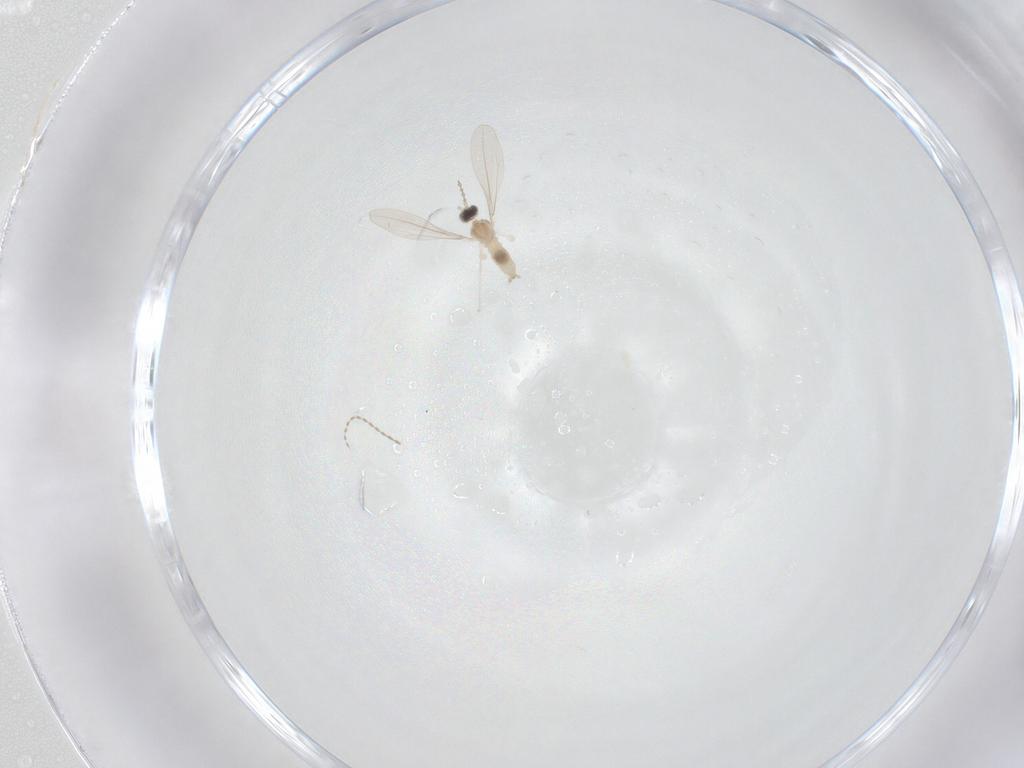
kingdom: Animalia
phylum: Arthropoda
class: Insecta
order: Diptera
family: Cecidomyiidae
